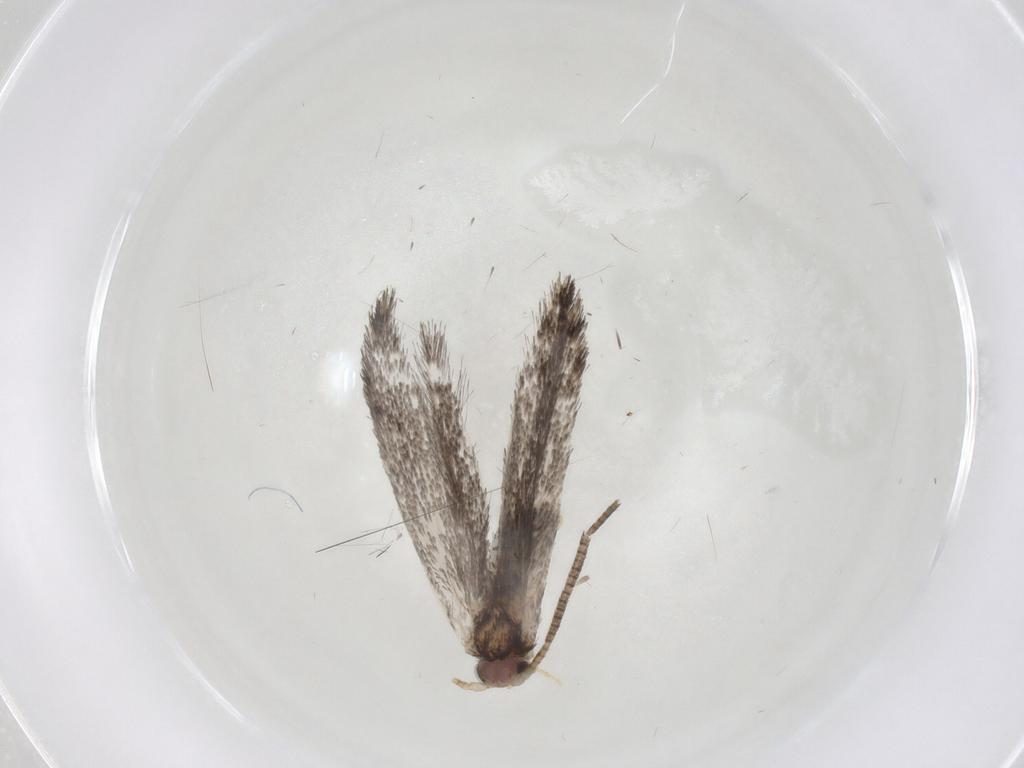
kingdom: Animalia
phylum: Arthropoda
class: Insecta
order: Lepidoptera
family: Tineidae
